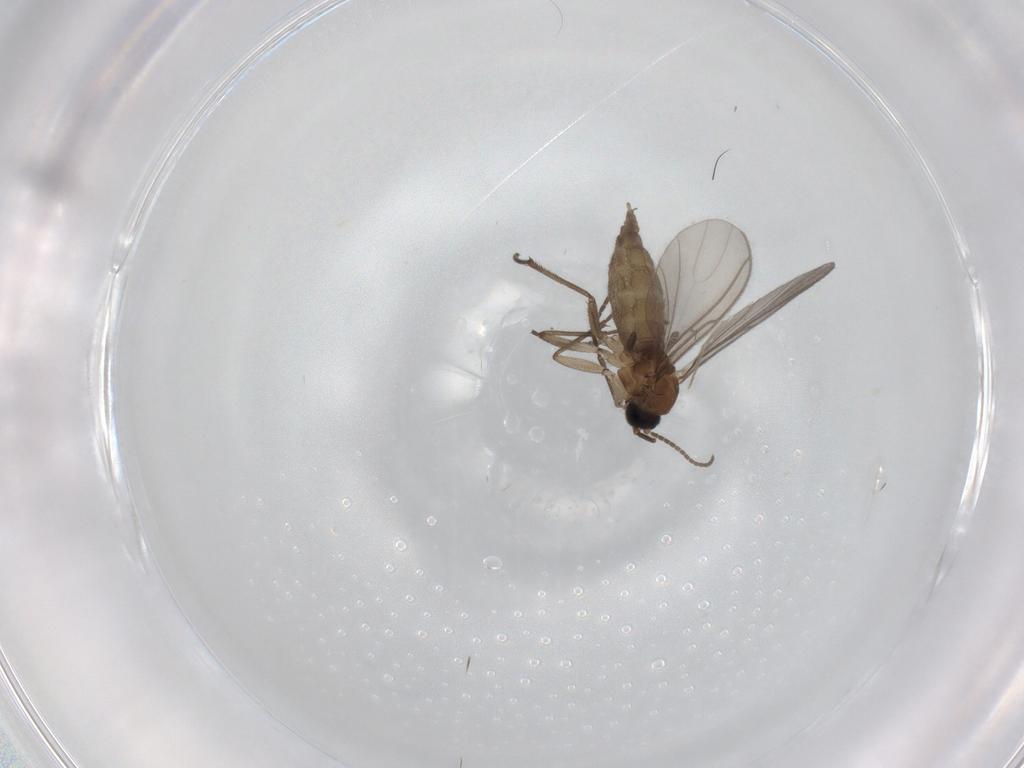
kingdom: Animalia
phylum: Arthropoda
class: Insecta
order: Diptera
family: Sciaridae
